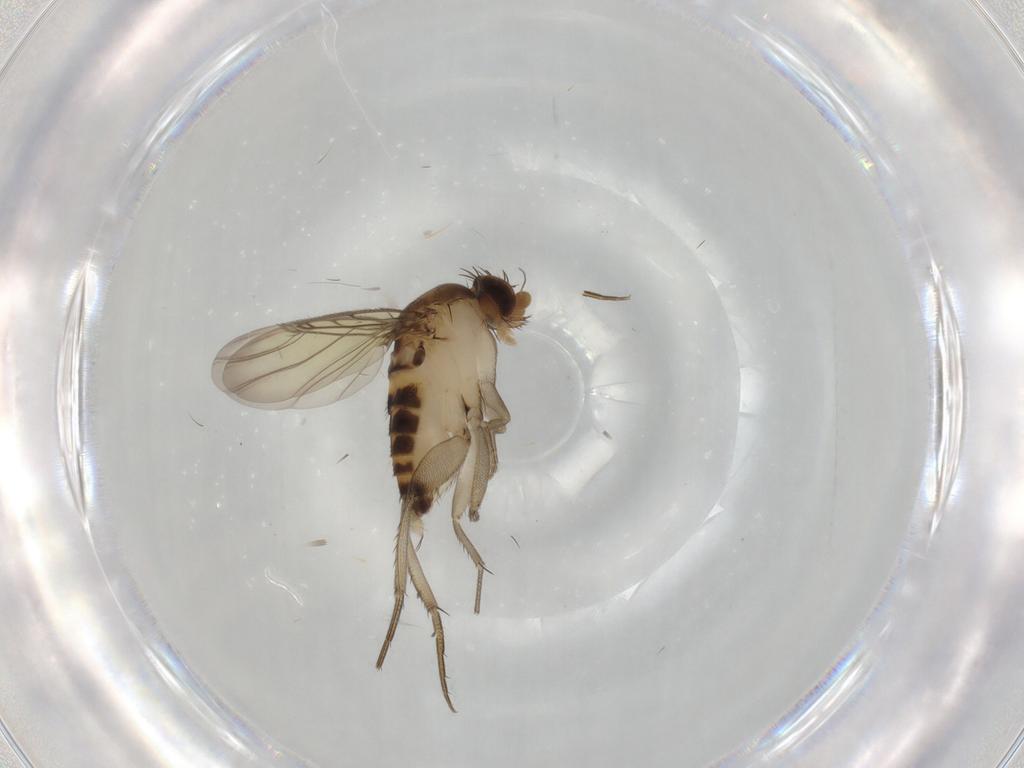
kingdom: Animalia
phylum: Arthropoda
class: Insecta
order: Diptera
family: Phoridae
